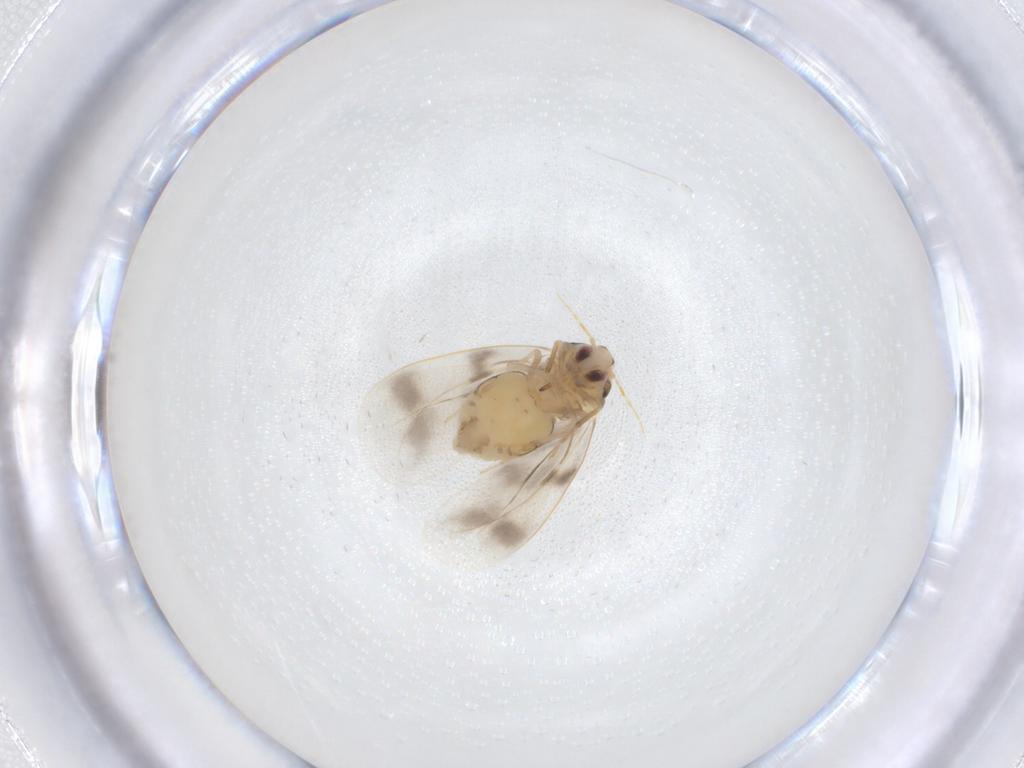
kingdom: Animalia
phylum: Arthropoda
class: Insecta
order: Hemiptera
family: Aleyrodidae
